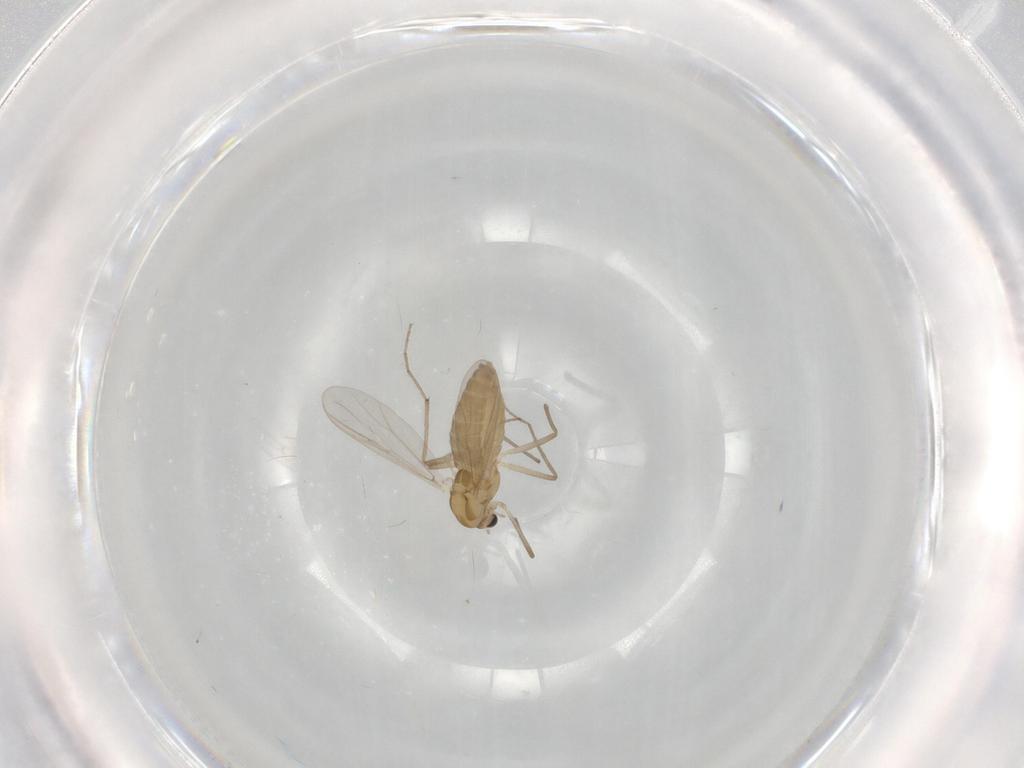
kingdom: Animalia
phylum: Arthropoda
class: Insecta
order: Diptera
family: Chironomidae
